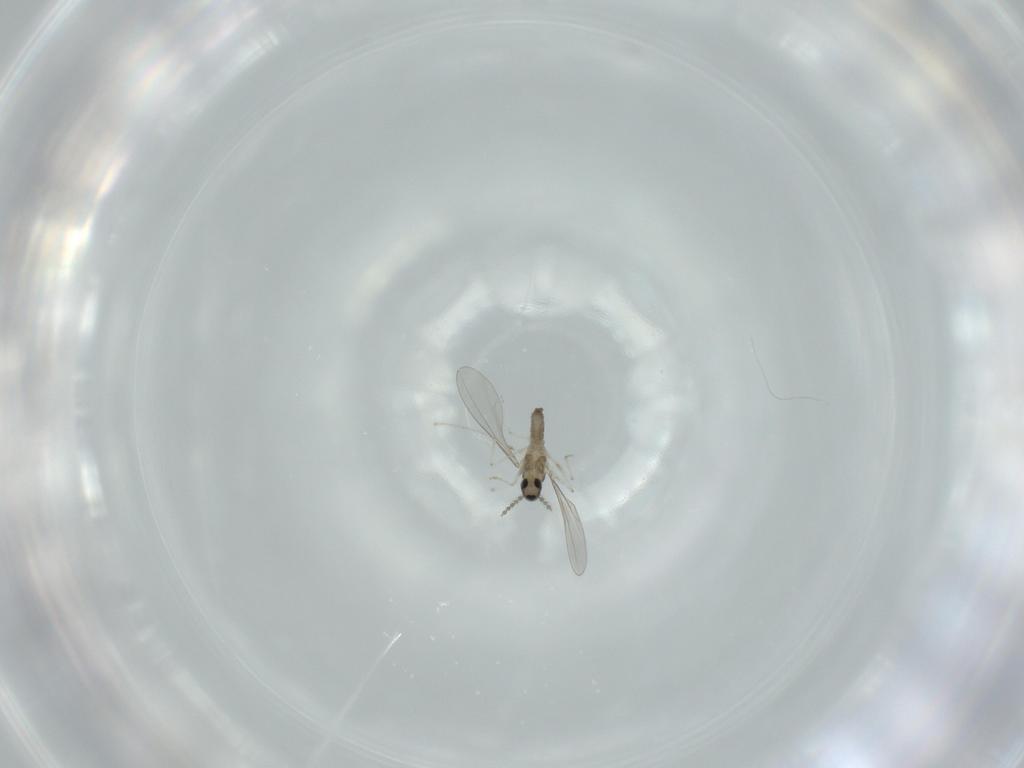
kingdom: Animalia
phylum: Arthropoda
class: Insecta
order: Diptera
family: Cecidomyiidae
